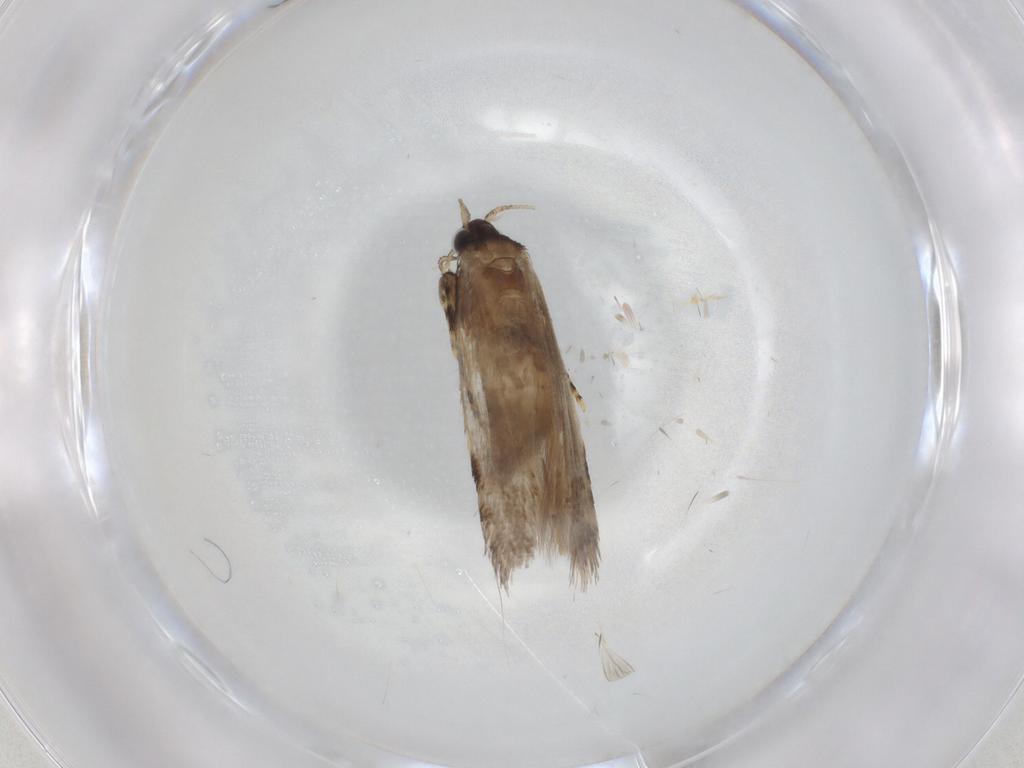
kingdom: Animalia
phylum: Arthropoda
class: Insecta
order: Lepidoptera
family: Tineidae
